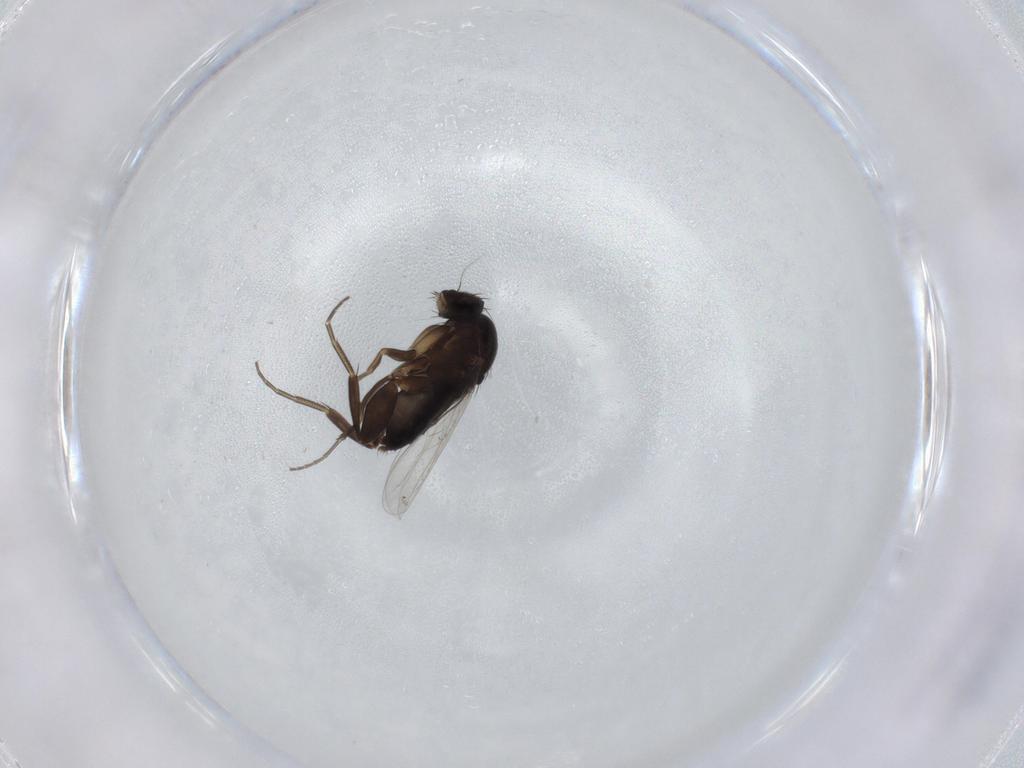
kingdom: Animalia
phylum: Arthropoda
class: Insecta
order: Diptera
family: Phoridae
